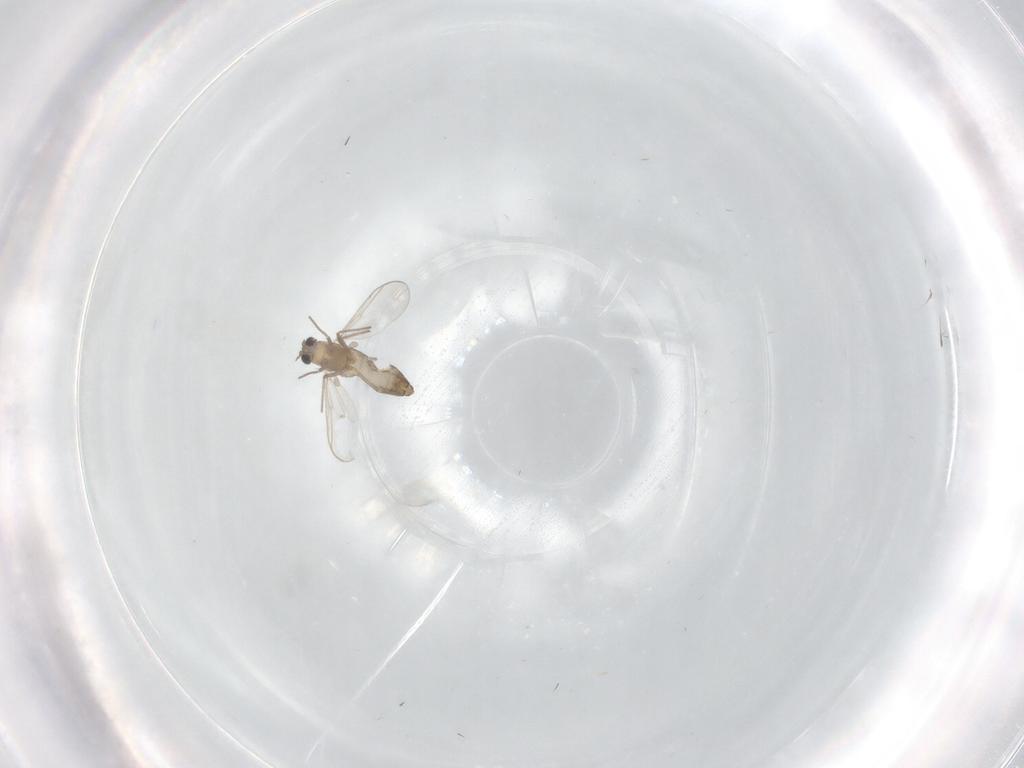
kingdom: Animalia
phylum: Arthropoda
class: Insecta
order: Diptera
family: Chironomidae
